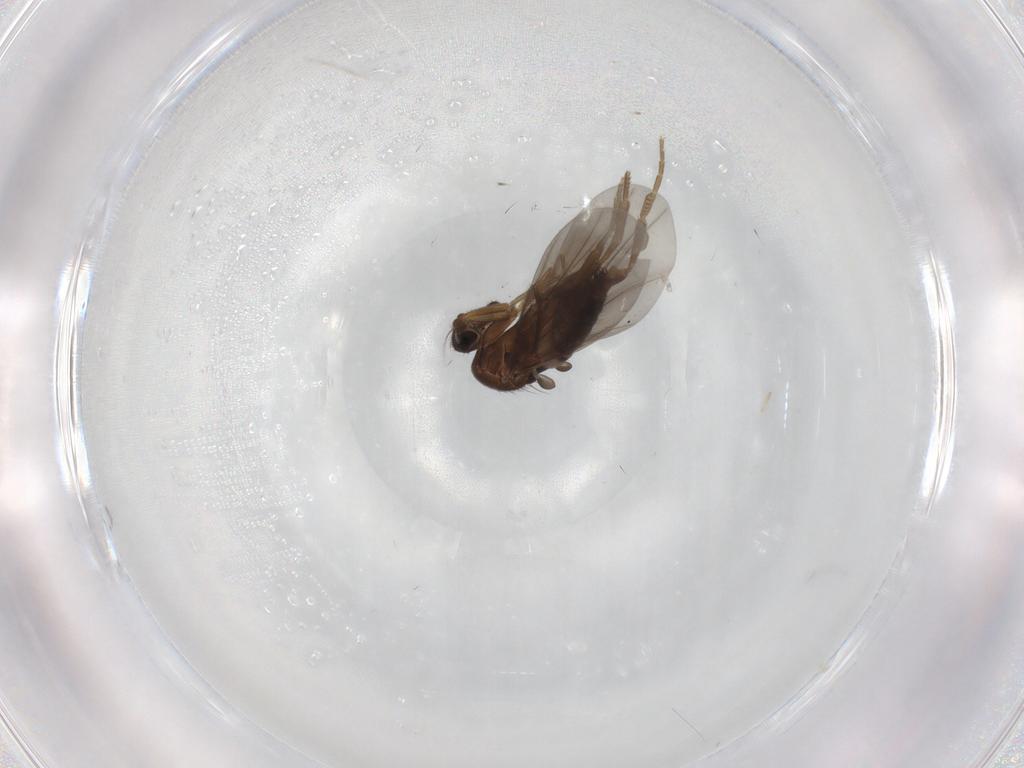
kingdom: Animalia
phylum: Arthropoda
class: Insecta
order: Diptera
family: Phoridae
